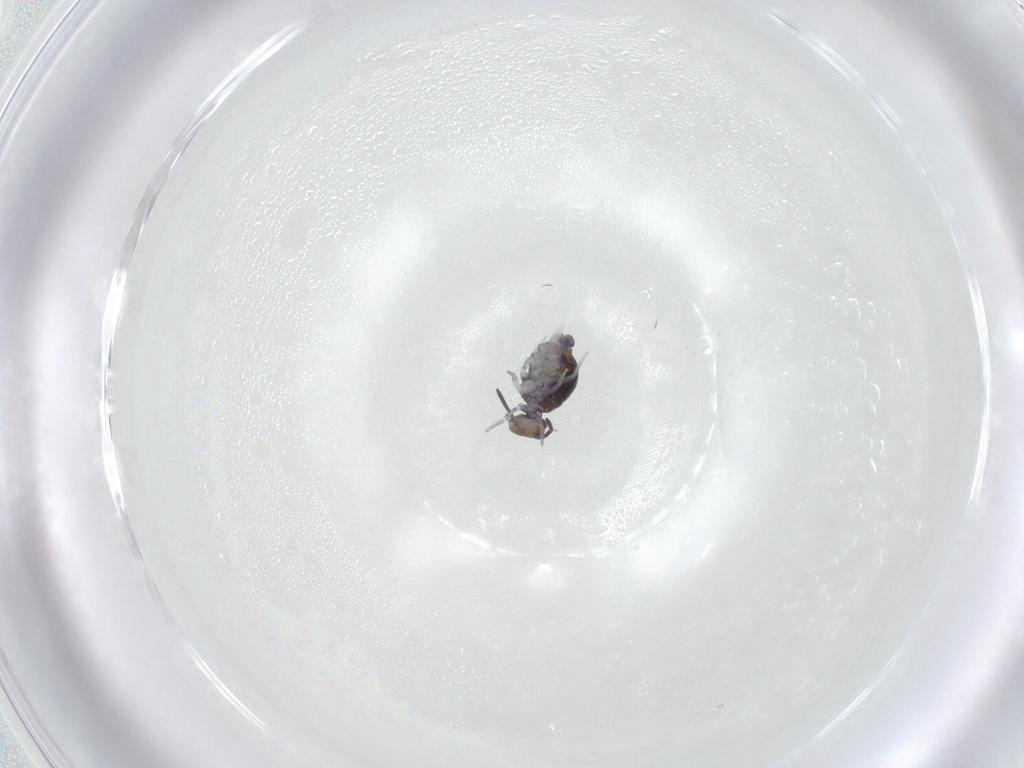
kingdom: Animalia
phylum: Arthropoda
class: Collembola
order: Symphypleona
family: Katiannidae
